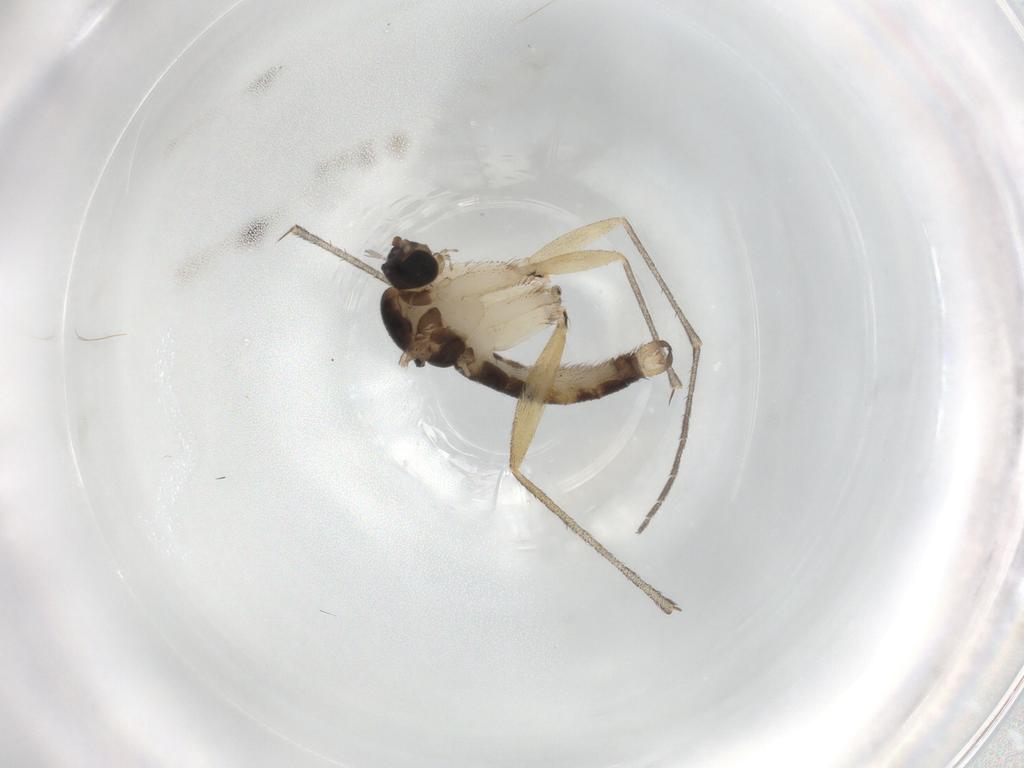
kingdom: Animalia
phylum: Arthropoda
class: Insecta
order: Diptera
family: Sciaridae
